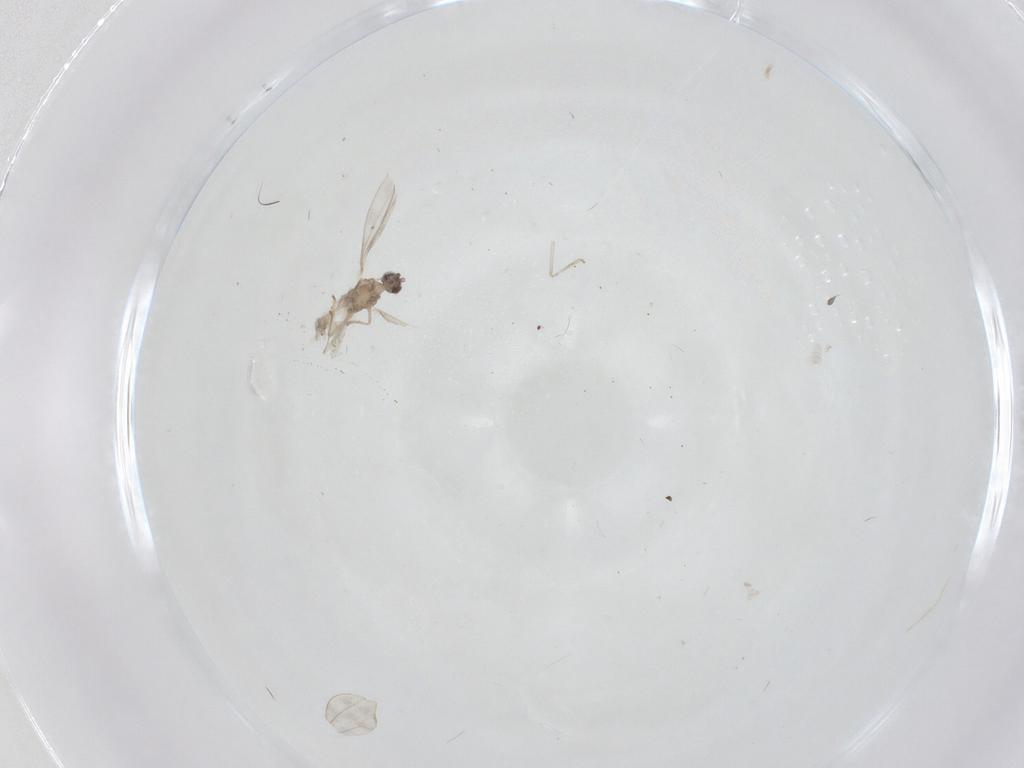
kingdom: Animalia
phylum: Arthropoda
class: Insecta
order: Diptera
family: Cecidomyiidae
